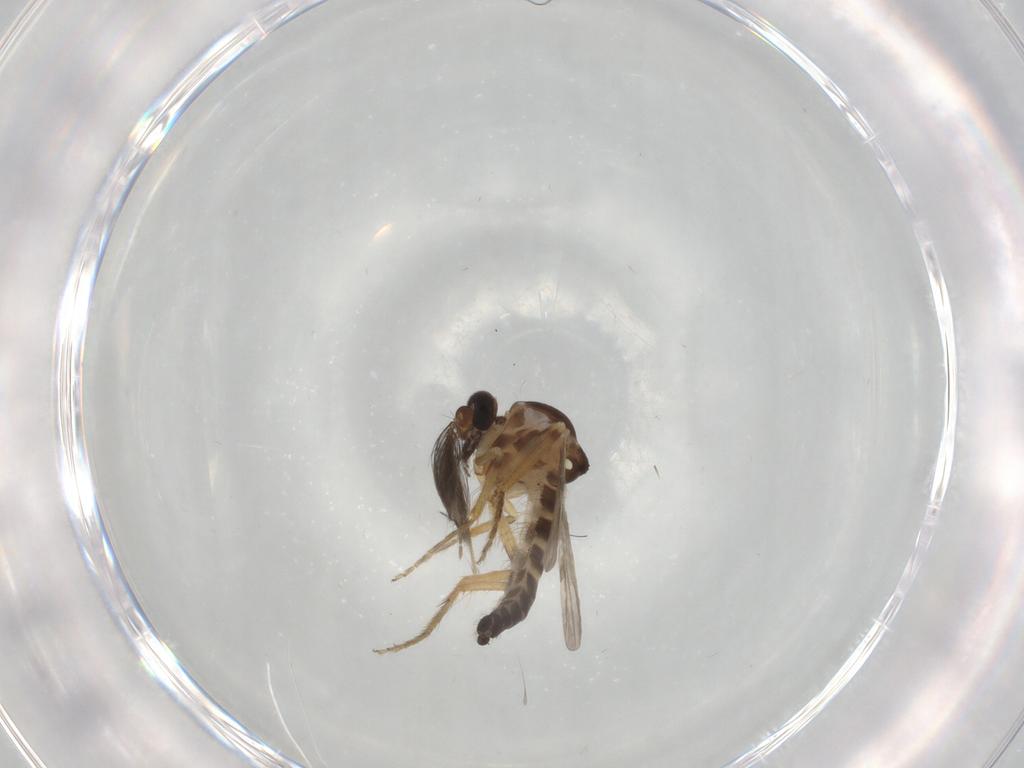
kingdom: Animalia
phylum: Arthropoda
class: Insecta
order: Diptera
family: Ceratopogonidae
